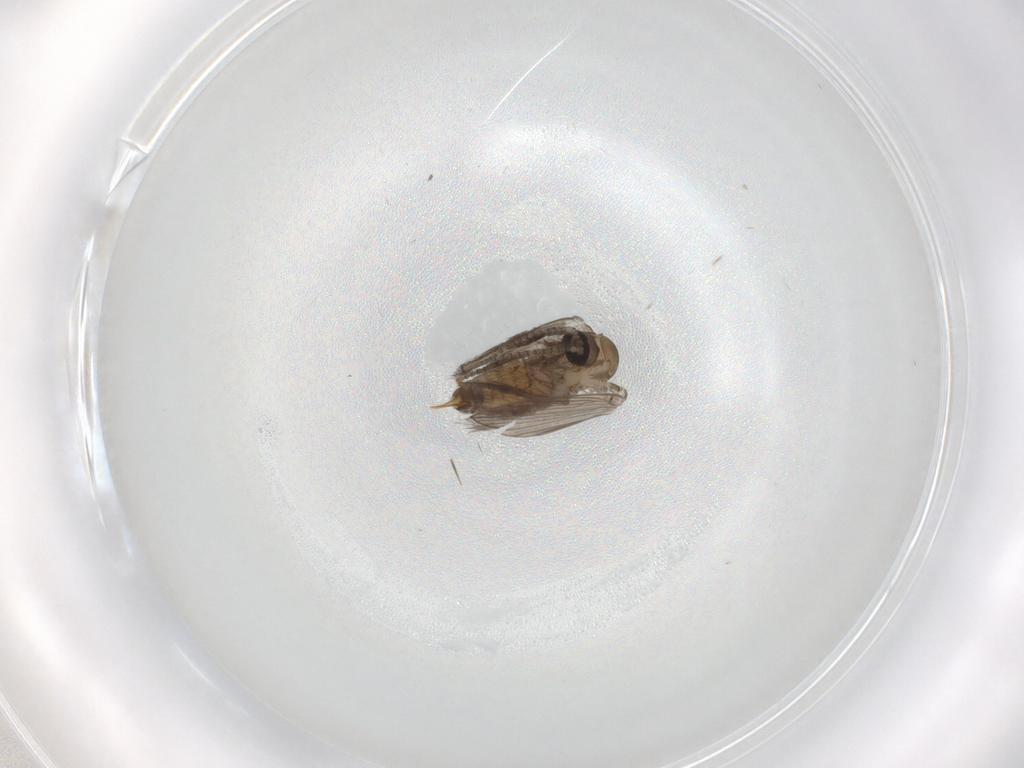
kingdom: Animalia
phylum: Arthropoda
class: Insecta
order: Diptera
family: Psychodidae
